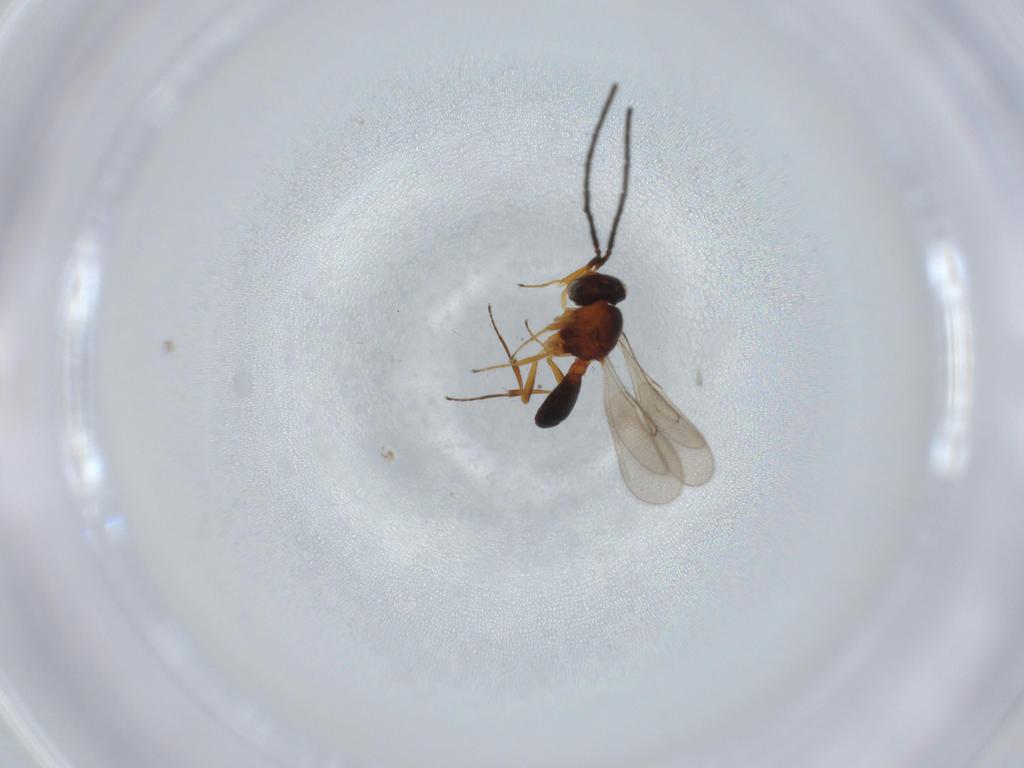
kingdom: Animalia
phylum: Arthropoda
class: Insecta
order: Hymenoptera
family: Scelionidae
